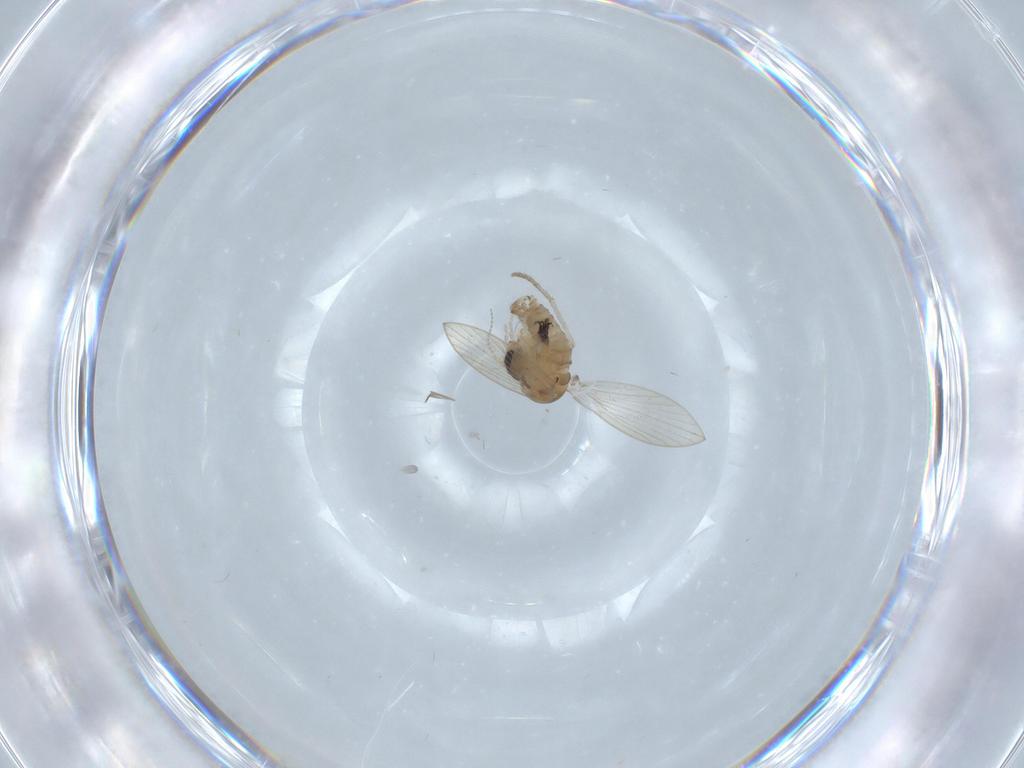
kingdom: Animalia
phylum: Arthropoda
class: Insecta
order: Diptera
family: Psychodidae
